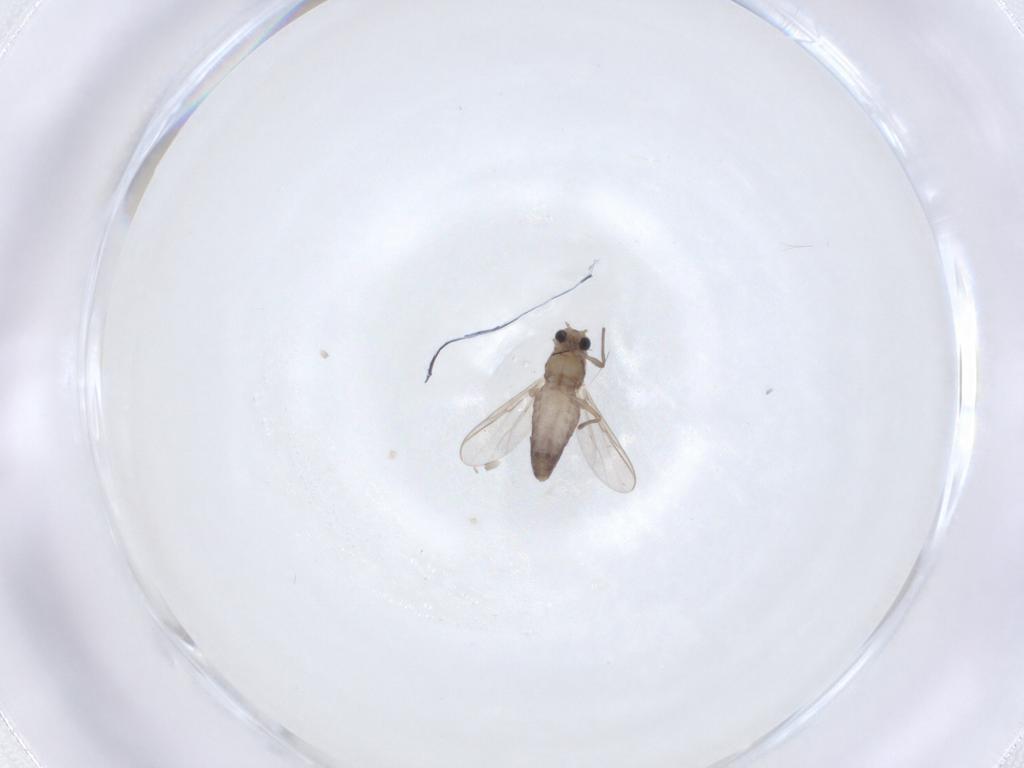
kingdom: Animalia
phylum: Arthropoda
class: Insecta
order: Diptera
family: Chironomidae
